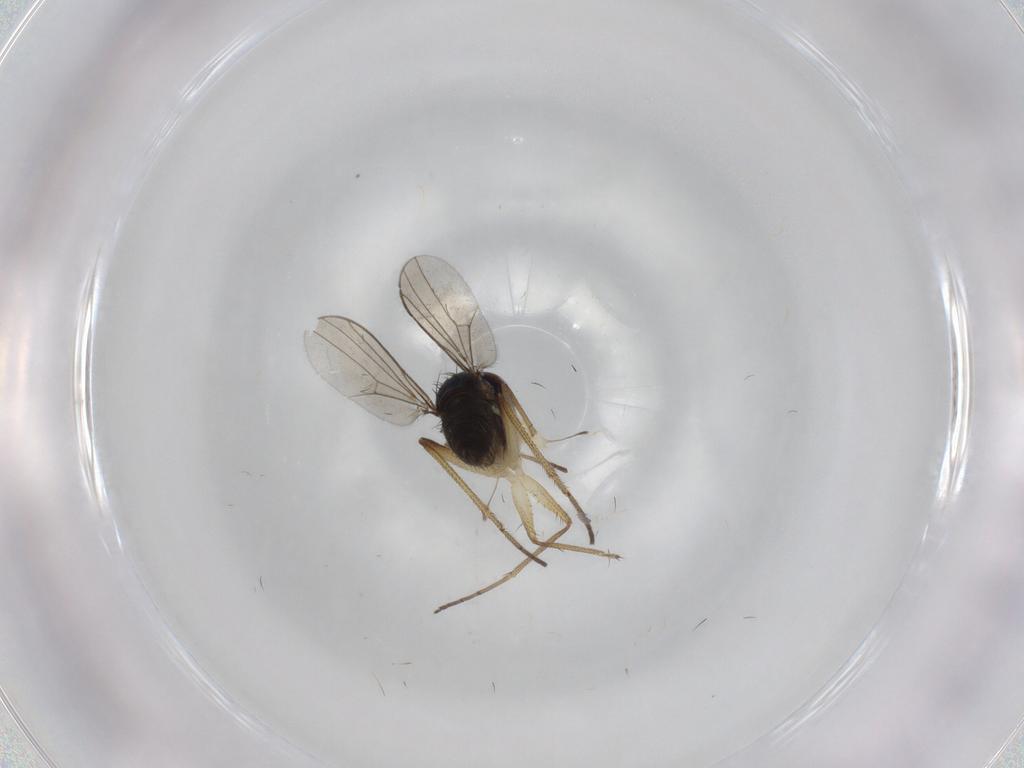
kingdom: Animalia
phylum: Arthropoda
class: Insecta
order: Diptera
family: Dolichopodidae
